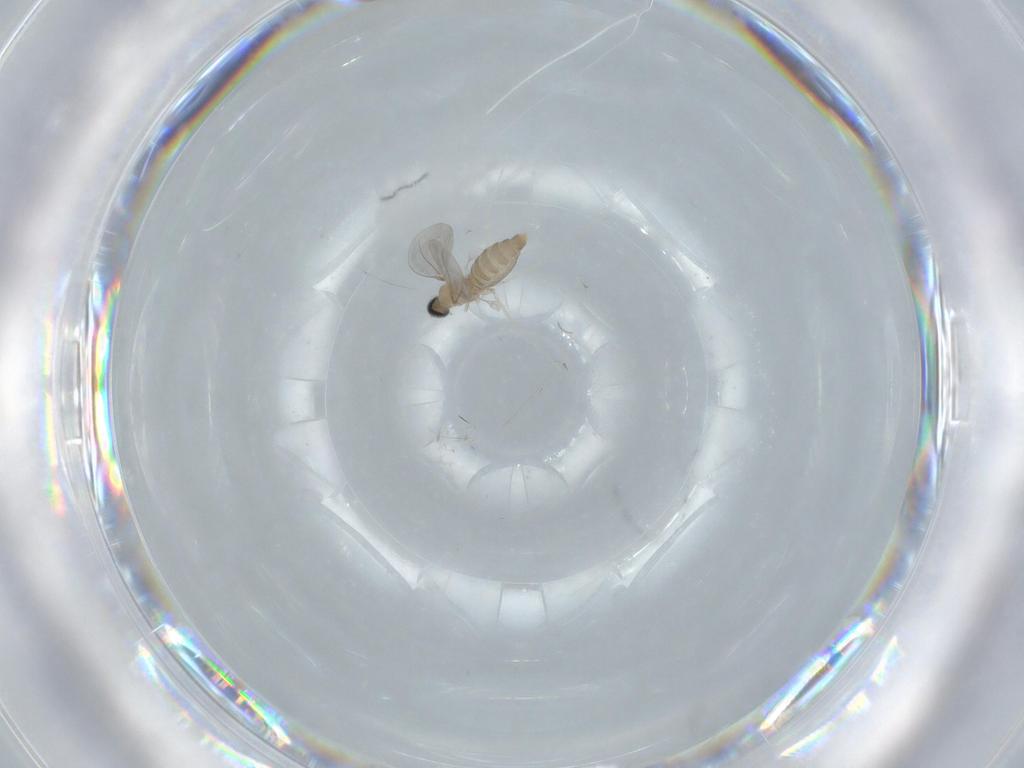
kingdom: Animalia
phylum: Arthropoda
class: Insecta
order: Diptera
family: Cecidomyiidae
